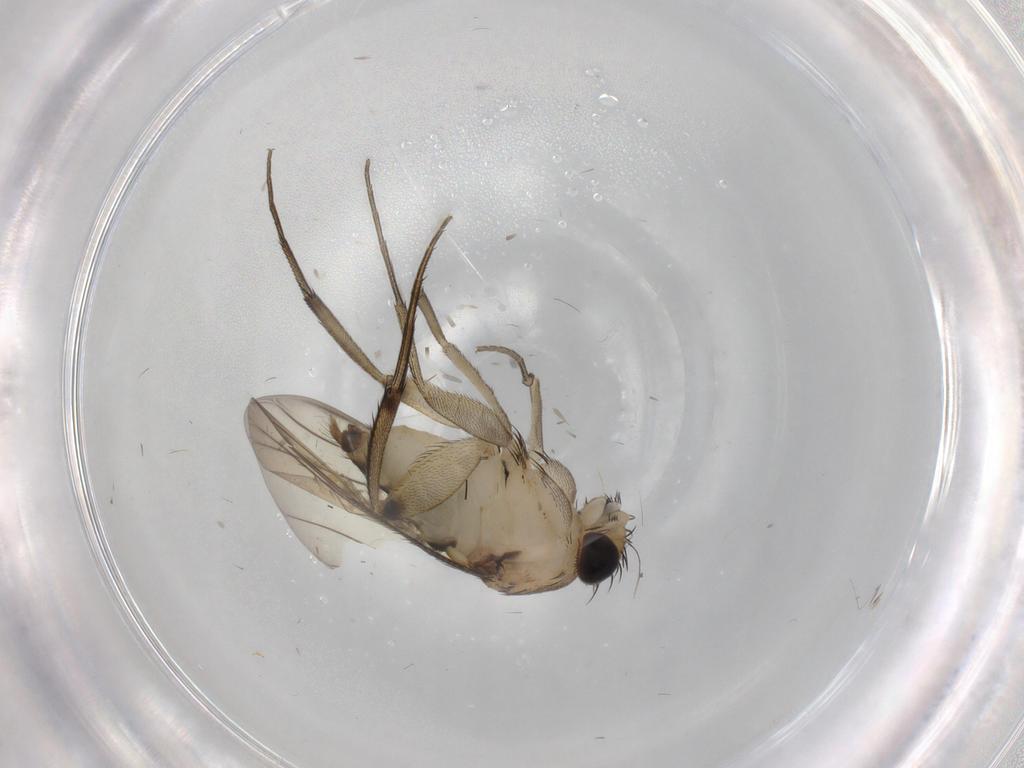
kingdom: Animalia
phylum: Arthropoda
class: Insecta
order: Diptera
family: Phoridae
